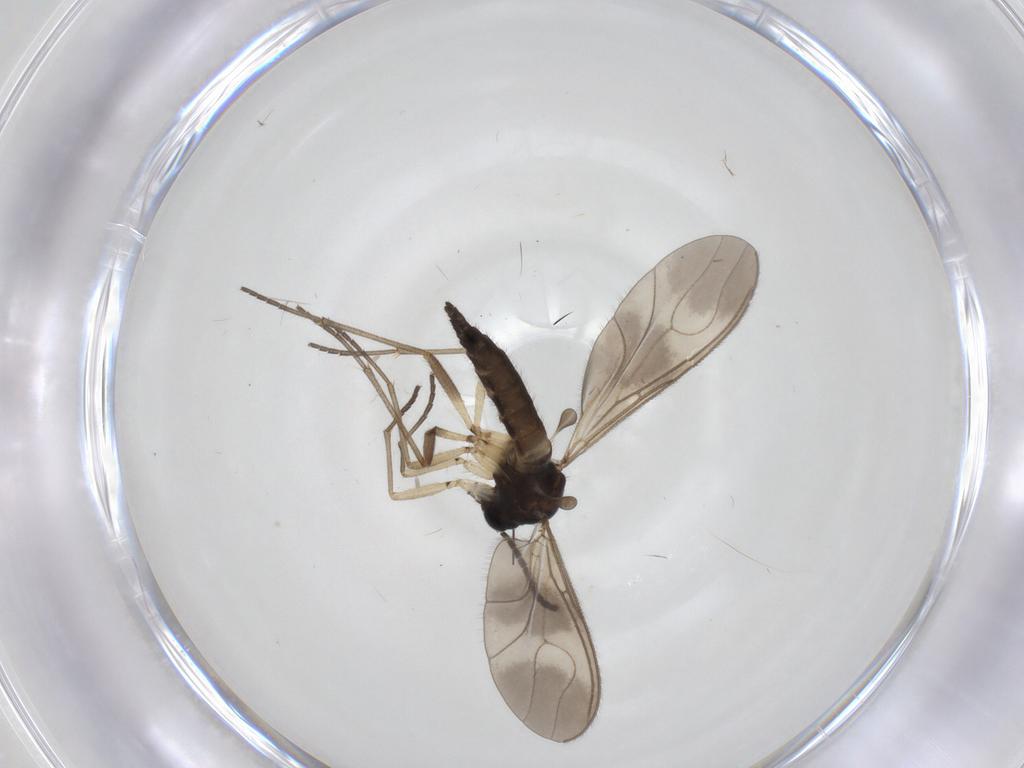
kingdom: Animalia
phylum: Arthropoda
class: Insecta
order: Diptera
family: Sciaridae
